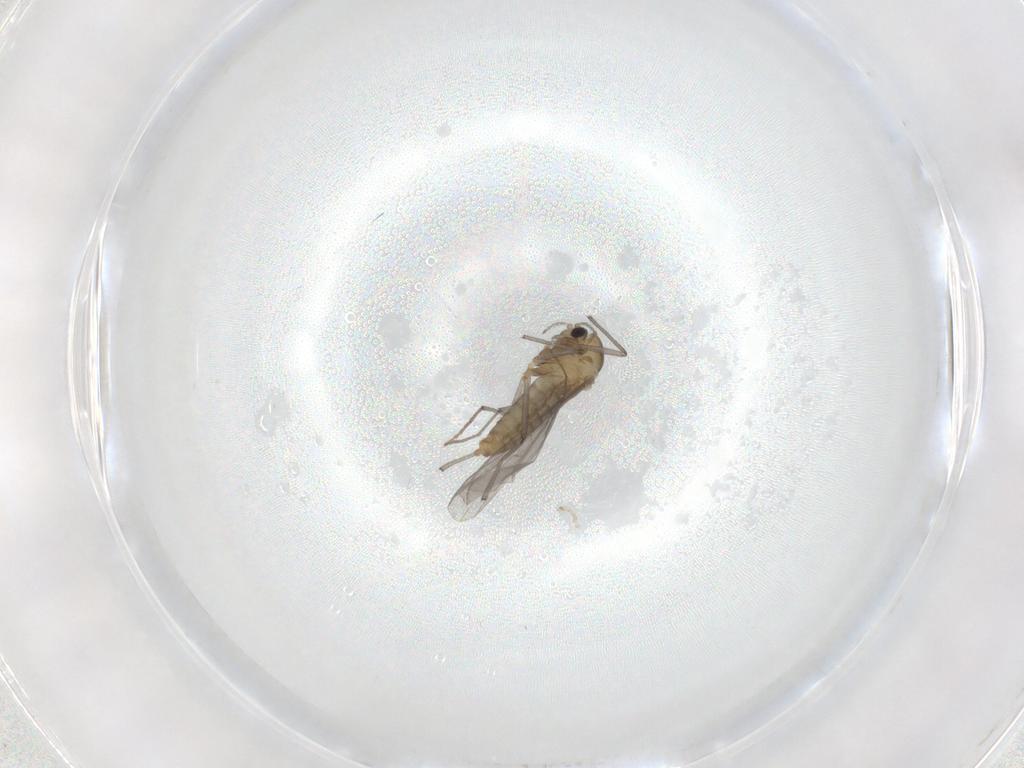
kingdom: Animalia
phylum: Arthropoda
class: Insecta
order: Diptera
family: Chironomidae
